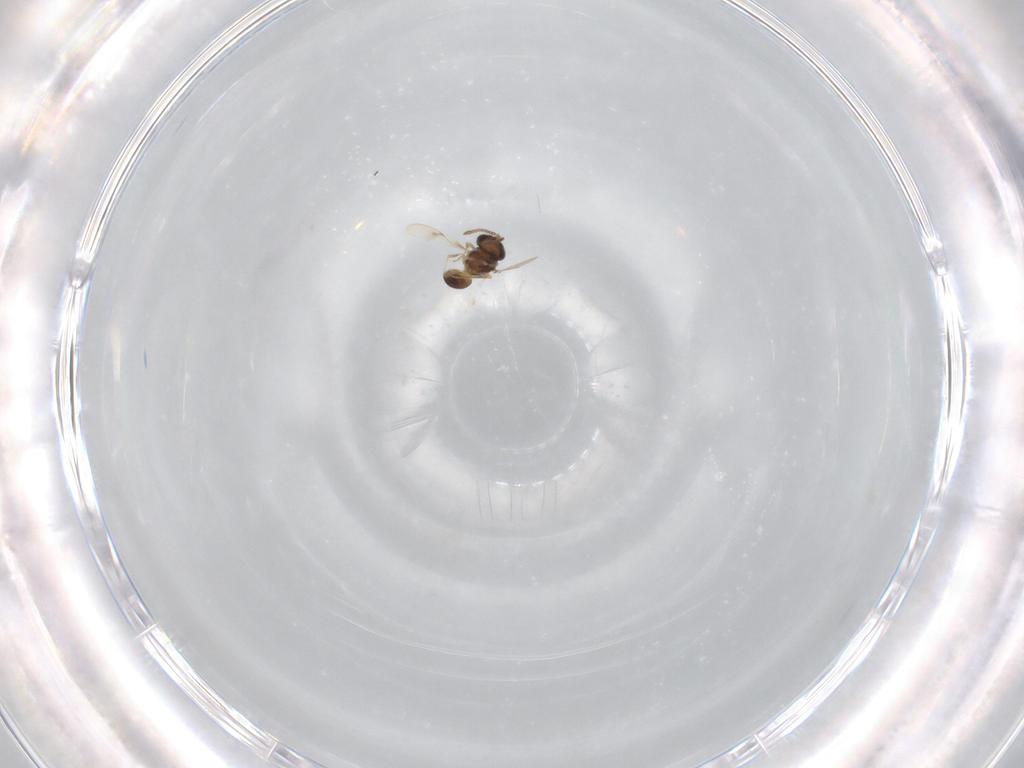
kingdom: Animalia
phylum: Arthropoda
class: Insecta
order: Hymenoptera
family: Scelionidae
